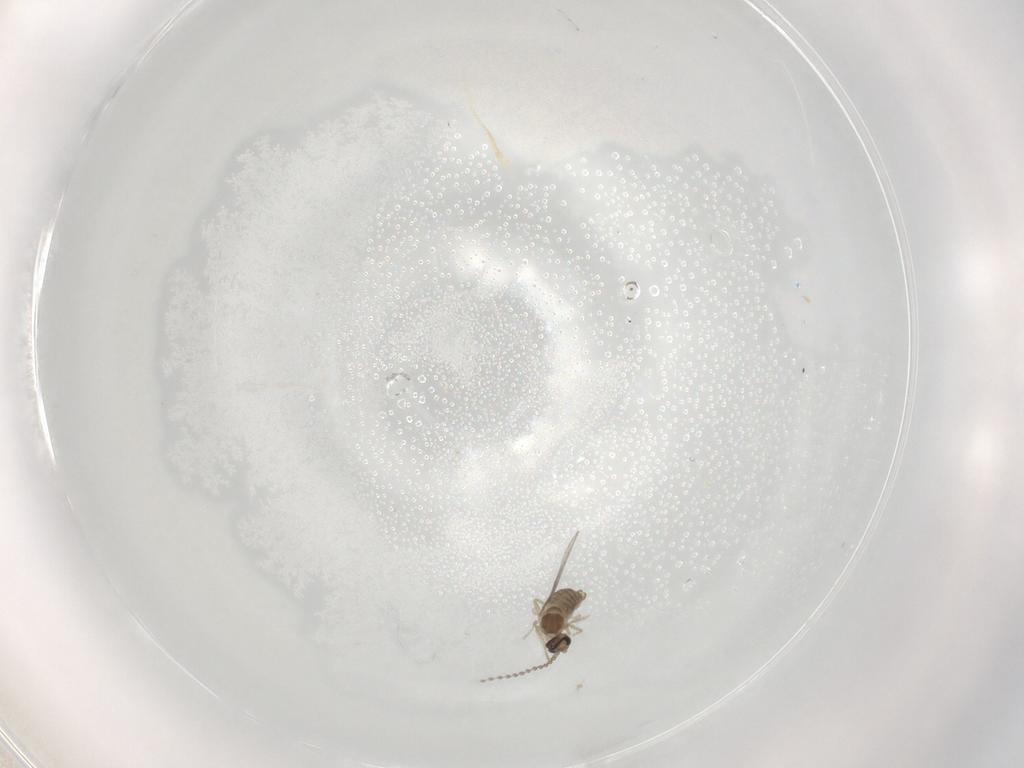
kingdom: Animalia
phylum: Arthropoda
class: Insecta
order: Diptera
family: Phoridae
